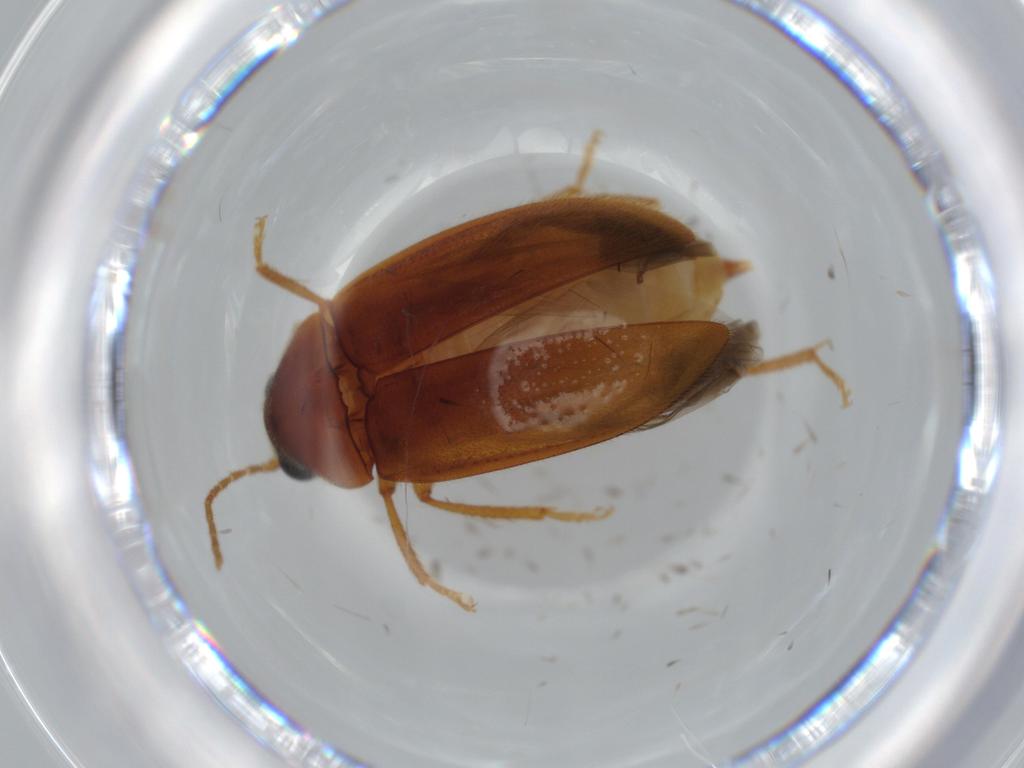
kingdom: Animalia
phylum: Arthropoda
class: Insecta
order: Coleoptera
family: Ptilodactylidae
